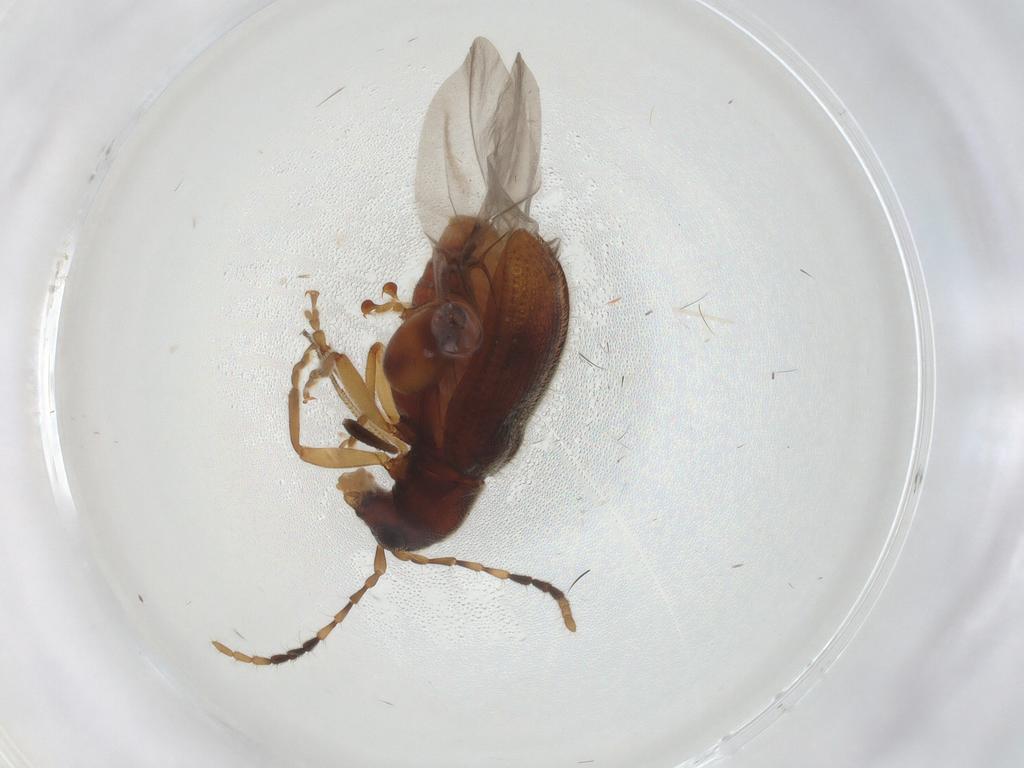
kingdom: Animalia
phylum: Arthropoda
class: Insecta
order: Coleoptera
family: Chrysomelidae
